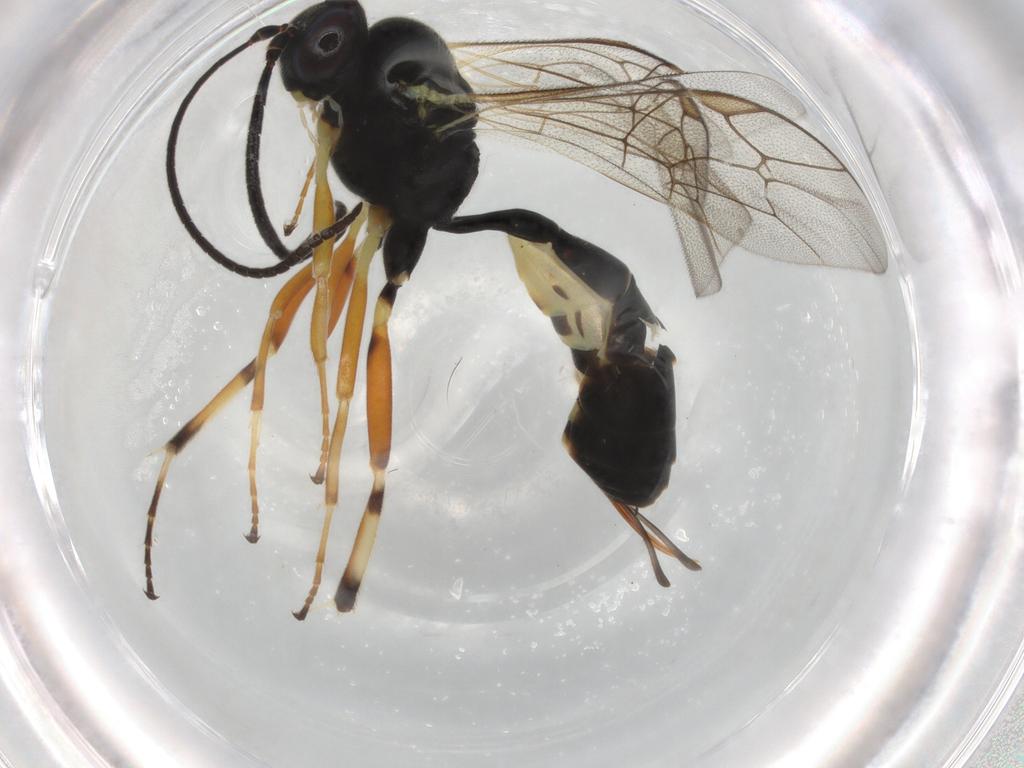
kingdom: Animalia
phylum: Arthropoda
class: Insecta
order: Hymenoptera
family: Ichneumonidae
